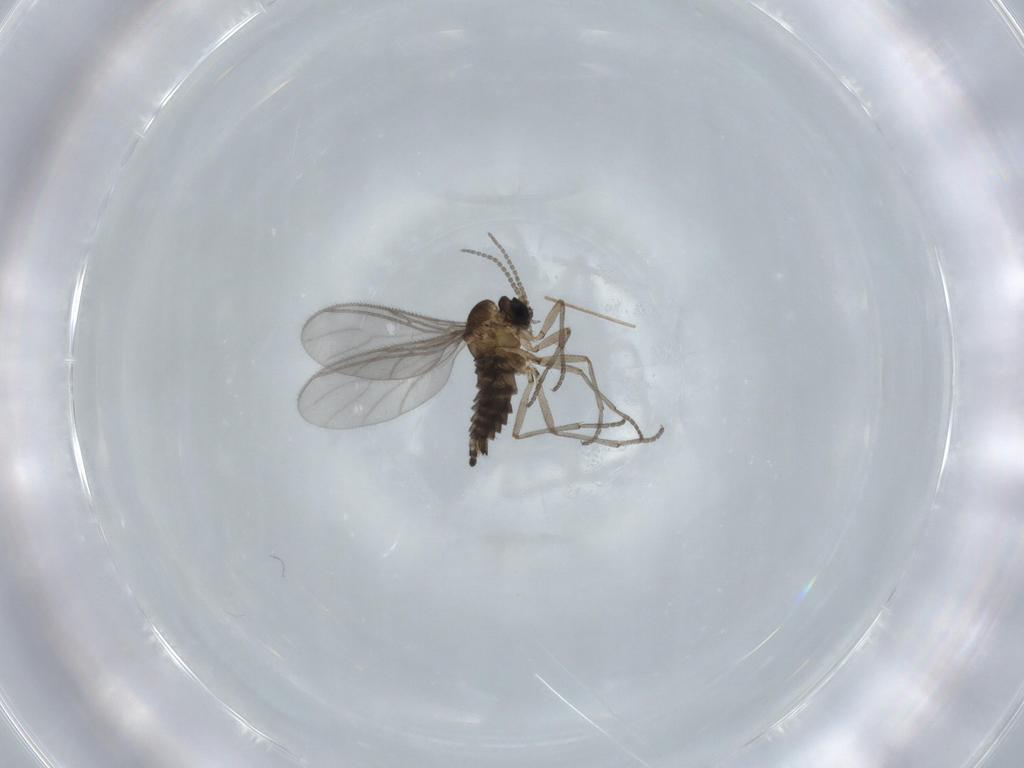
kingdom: Animalia
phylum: Arthropoda
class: Insecta
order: Diptera
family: Sciaridae
